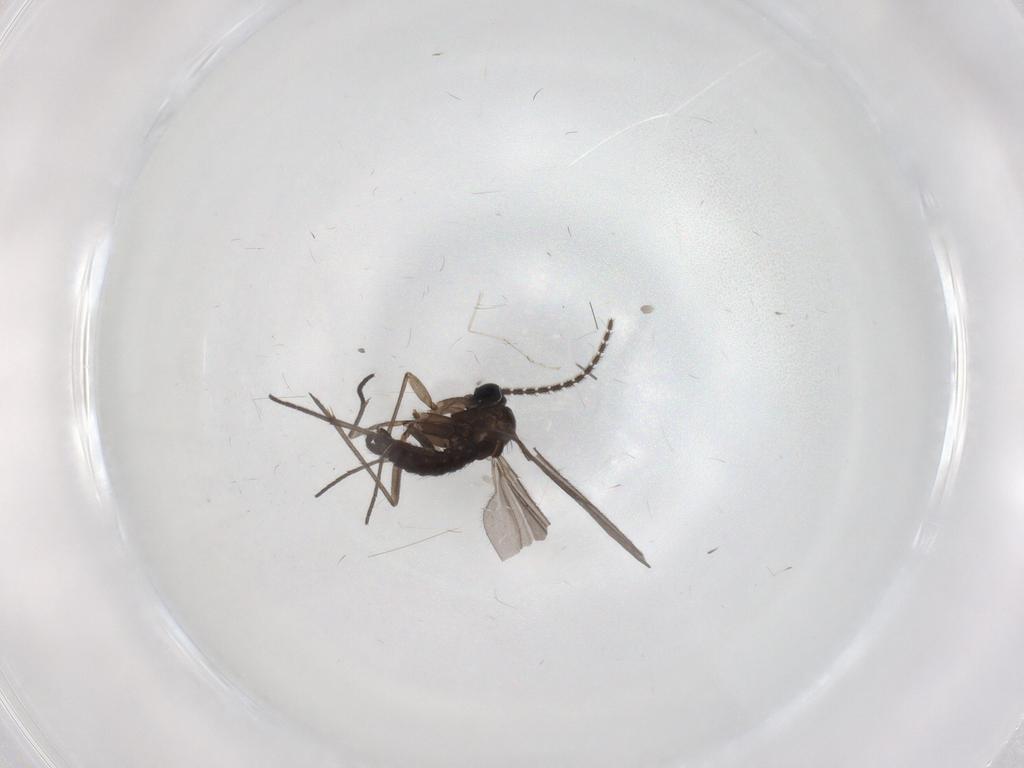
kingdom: Animalia
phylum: Arthropoda
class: Insecta
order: Diptera
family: Sciaridae
